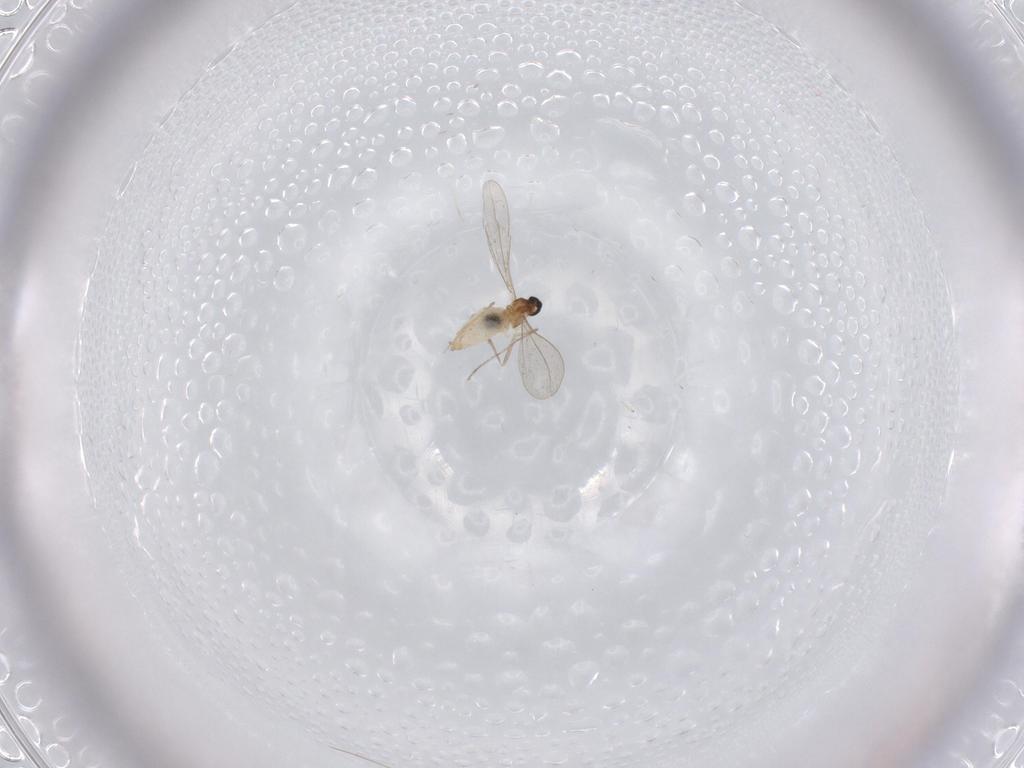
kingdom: Animalia
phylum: Arthropoda
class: Insecta
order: Diptera
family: Cecidomyiidae
